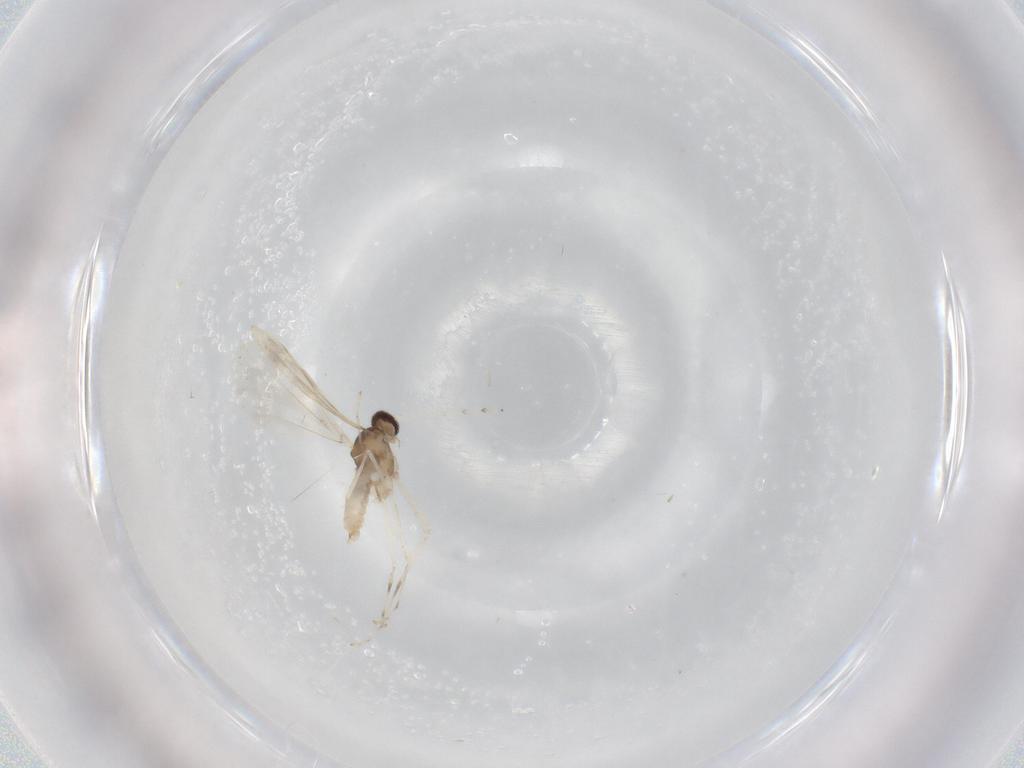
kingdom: Animalia
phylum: Arthropoda
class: Insecta
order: Diptera
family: Cecidomyiidae
